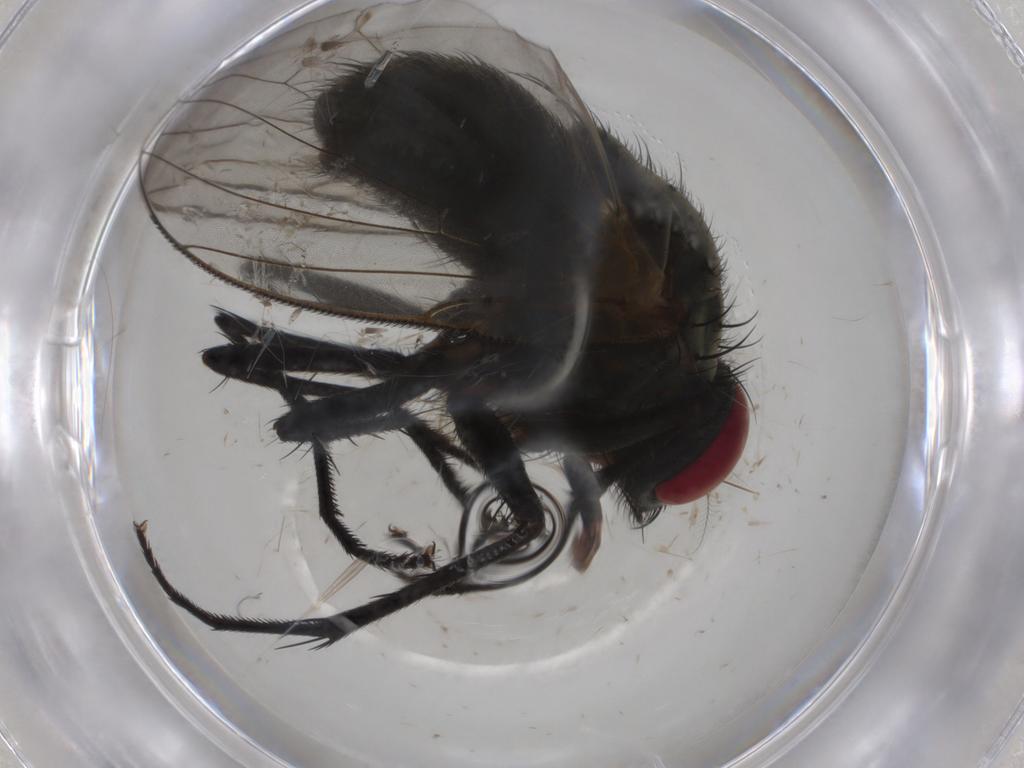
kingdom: Animalia
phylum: Arthropoda
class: Insecta
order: Diptera
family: Muscidae
